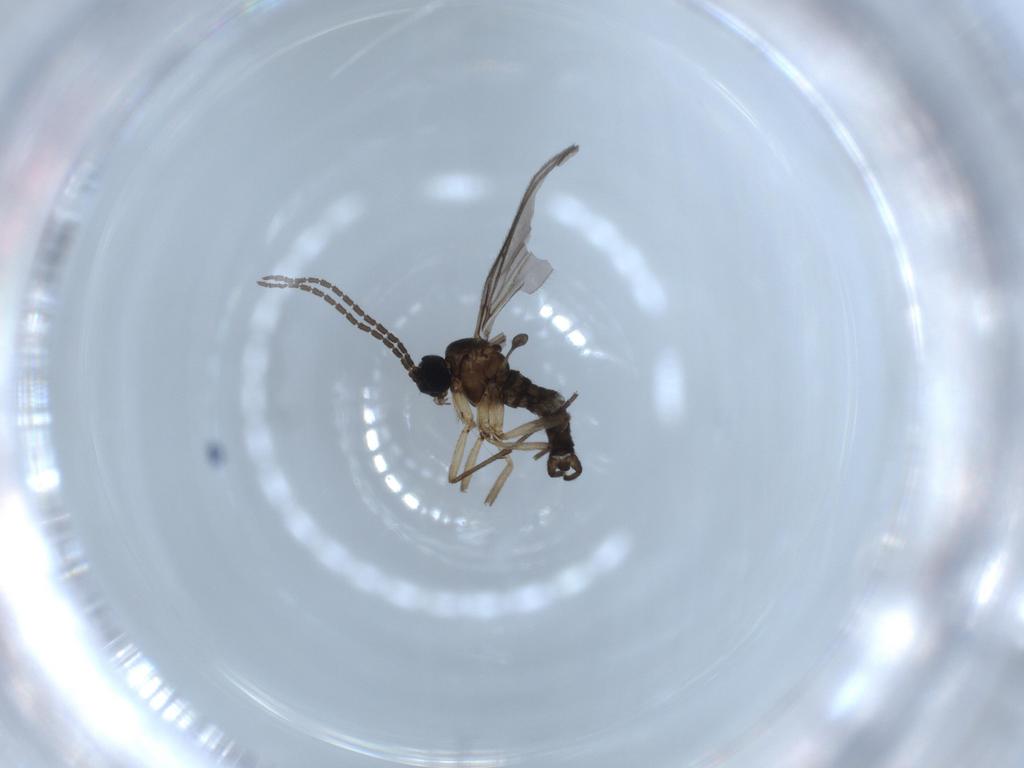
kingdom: Animalia
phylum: Arthropoda
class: Insecta
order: Diptera
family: Sciaridae
